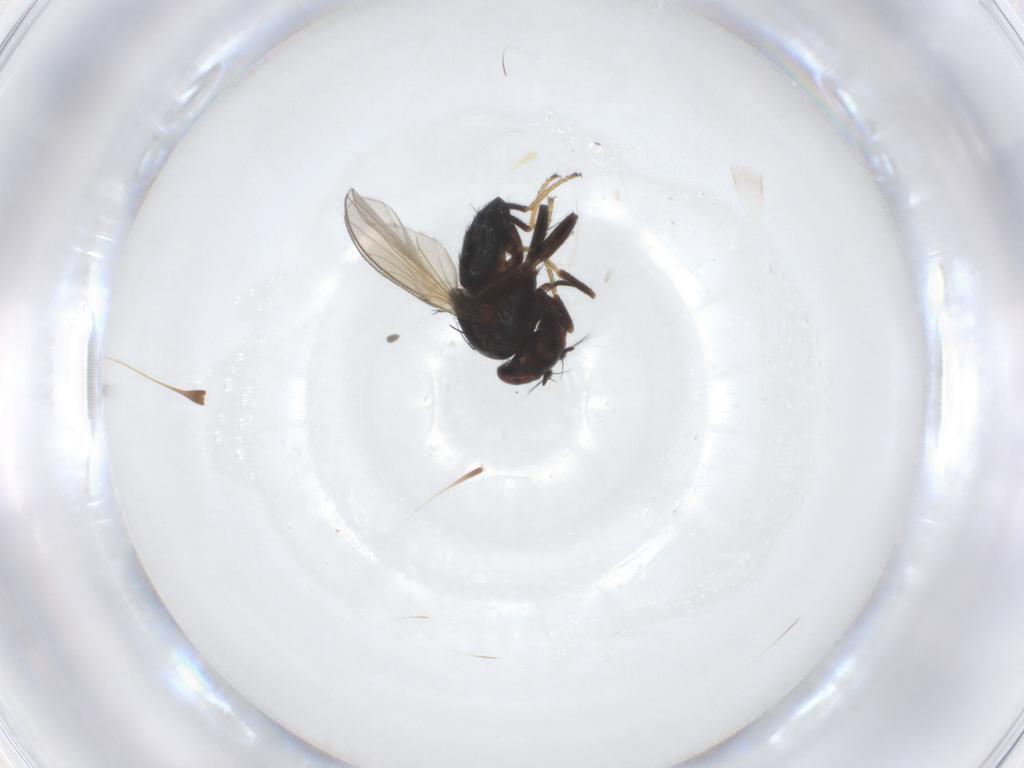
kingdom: Animalia
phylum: Arthropoda
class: Insecta
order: Diptera
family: Ephydridae
